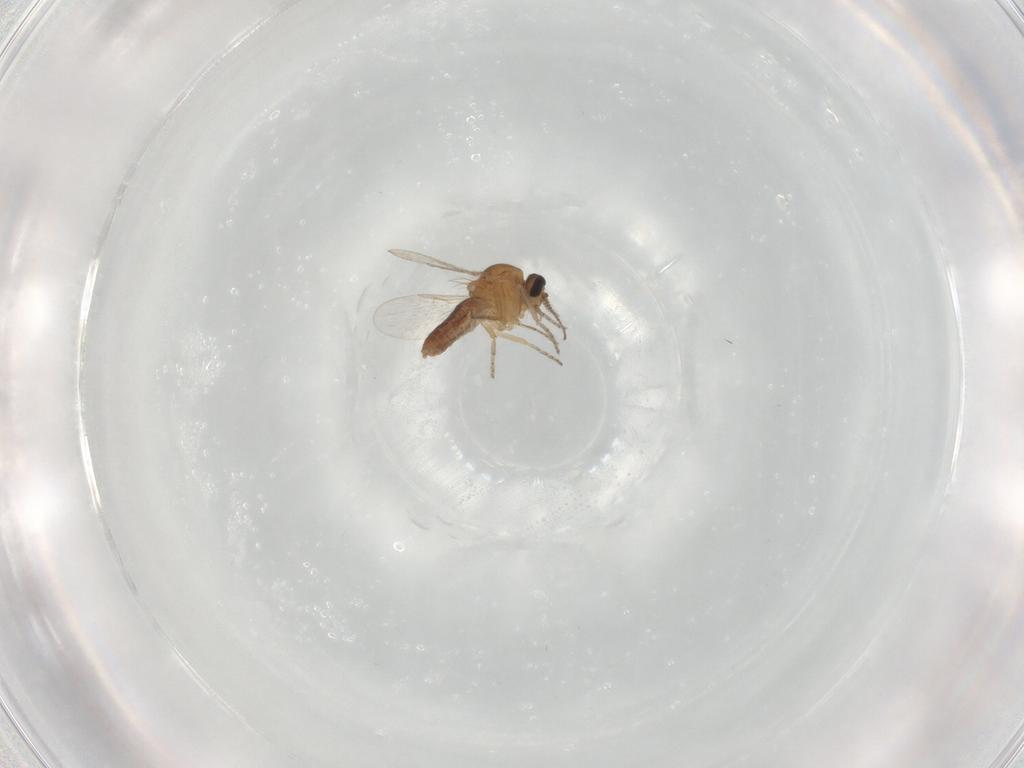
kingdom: Animalia
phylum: Arthropoda
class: Insecta
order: Diptera
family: Ceratopogonidae
